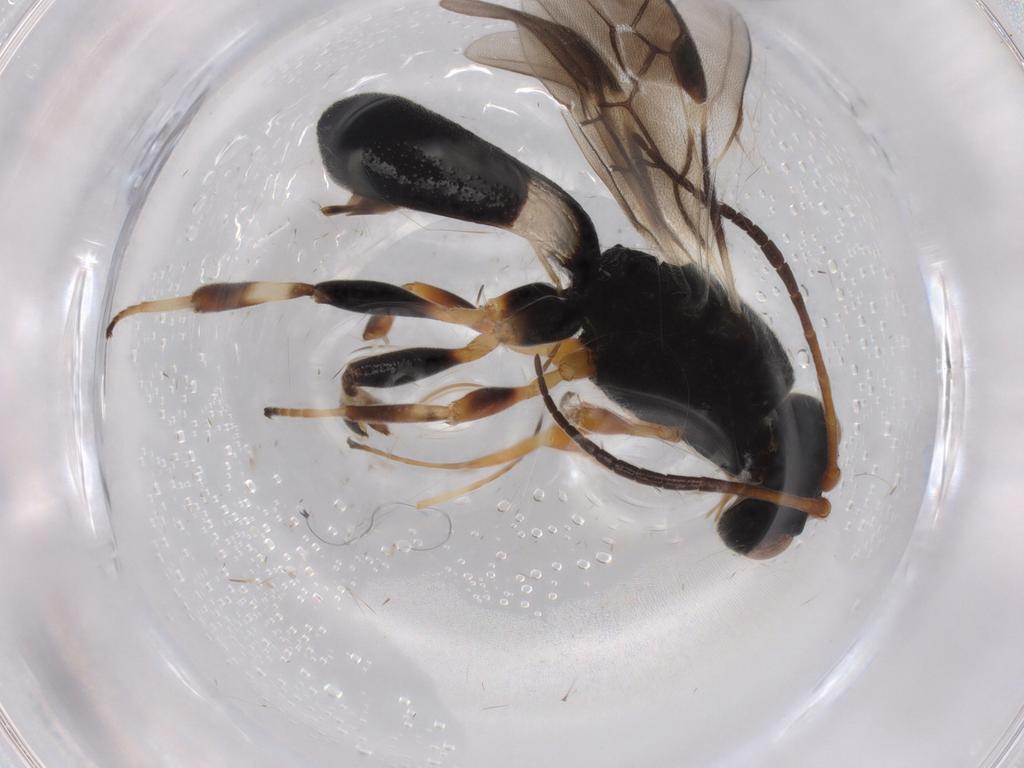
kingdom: Animalia
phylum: Arthropoda
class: Insecta
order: Hymenoptera
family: Braconidae
